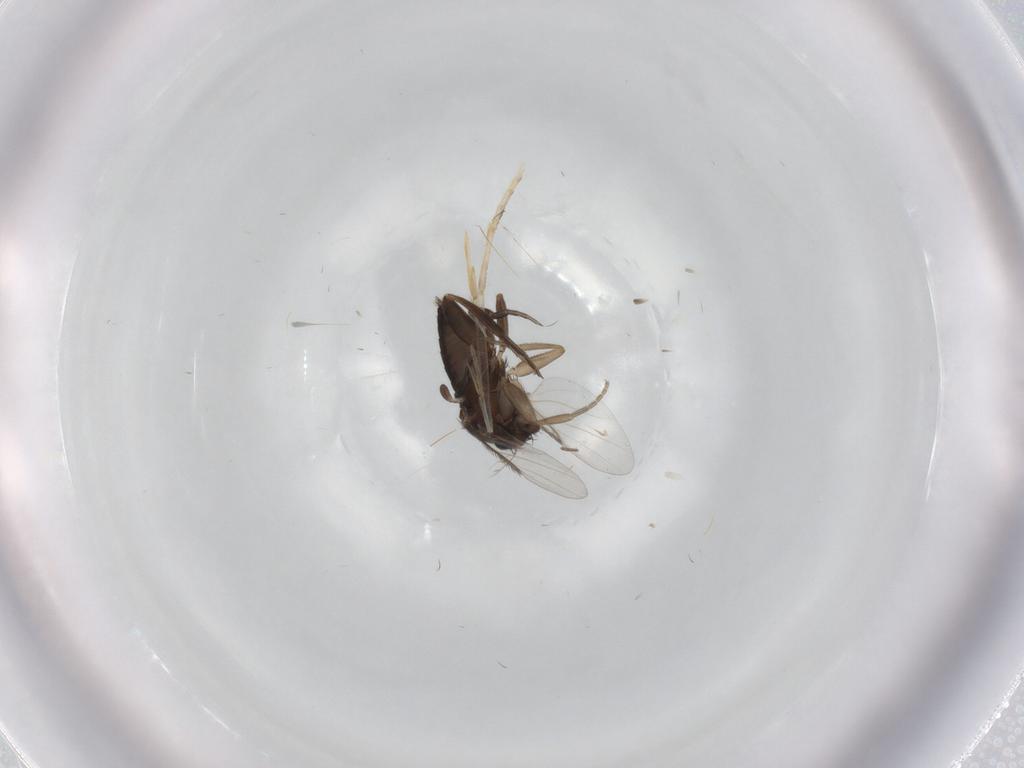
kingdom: Animalia
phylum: Arthropoda
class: Insecta
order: Diptera
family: Phoridae
